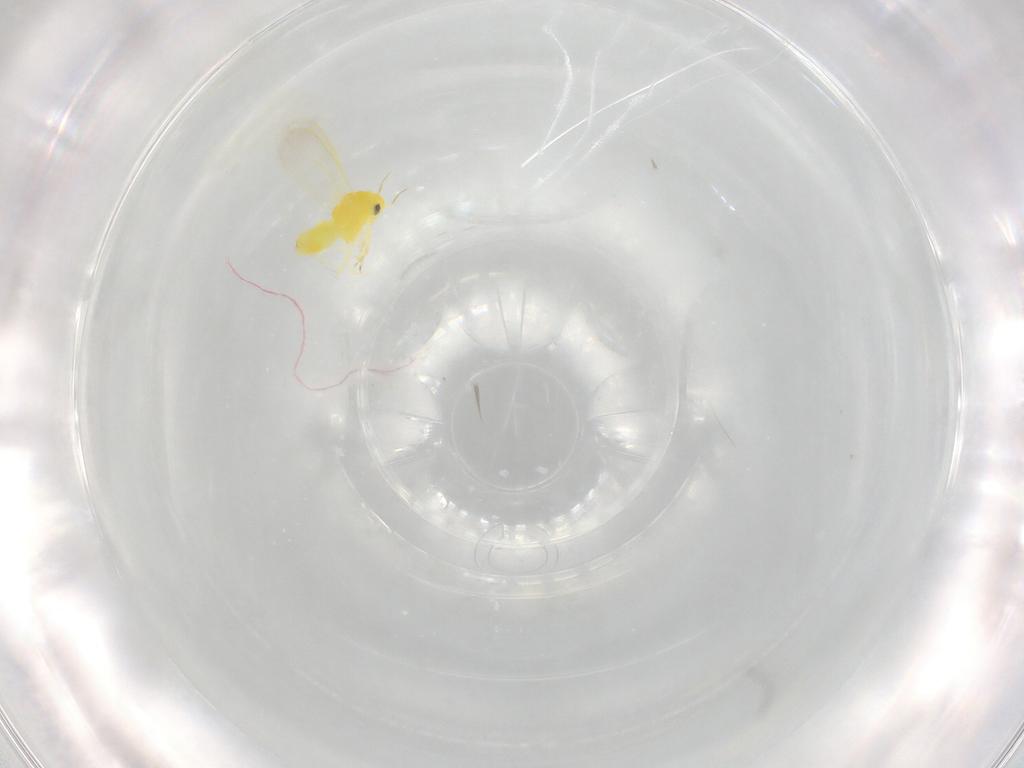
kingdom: Animalia
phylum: Arthropoda
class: Insecta
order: Hemiptera
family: Aleyrodidae
